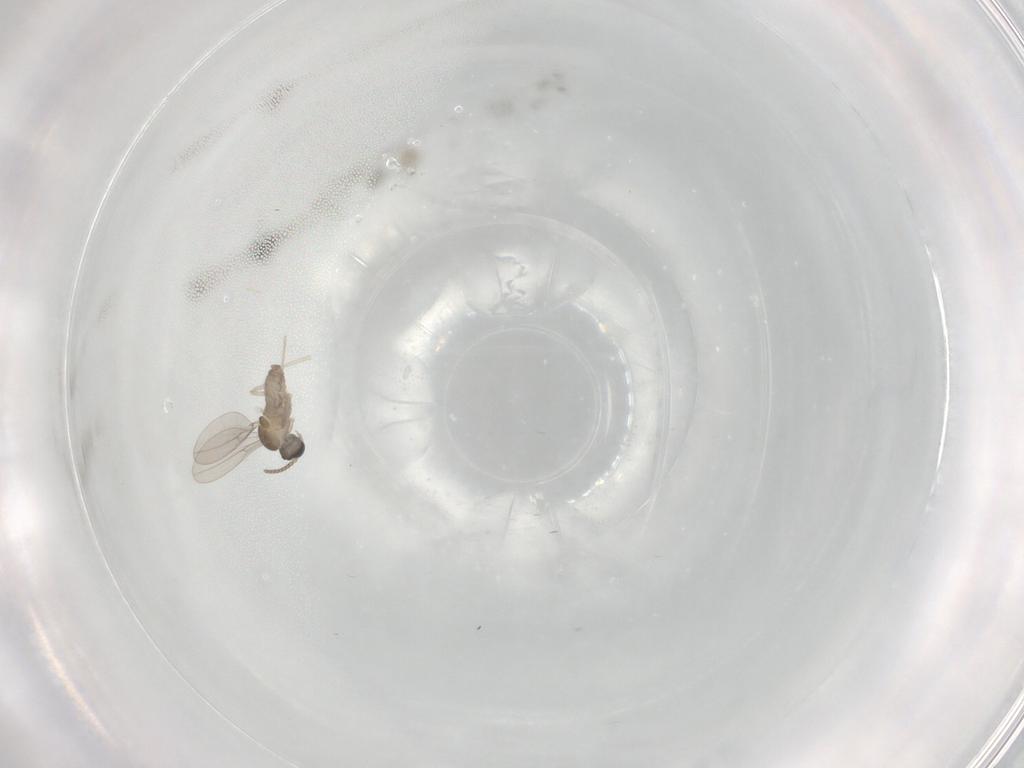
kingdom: Animalia
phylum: Arthropoda
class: Insecta
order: Diptera
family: Cecidomyiidae
